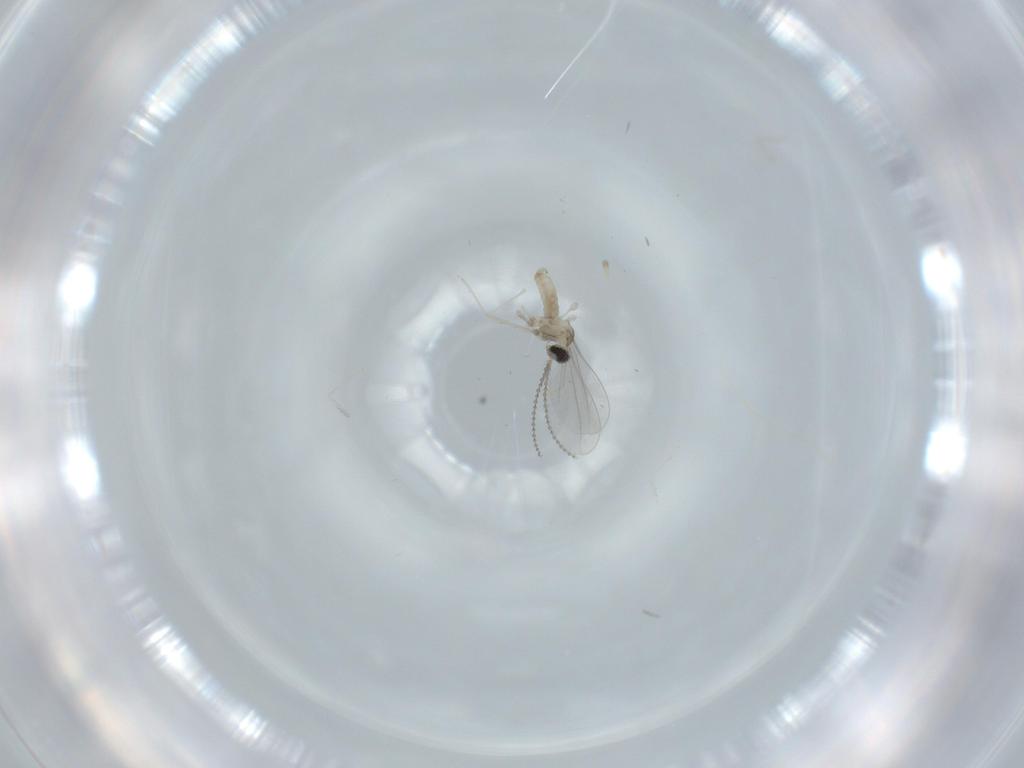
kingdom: Animalia
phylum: Arthropoda
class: Insecta
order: Diptera
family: Cecidomyiidae
